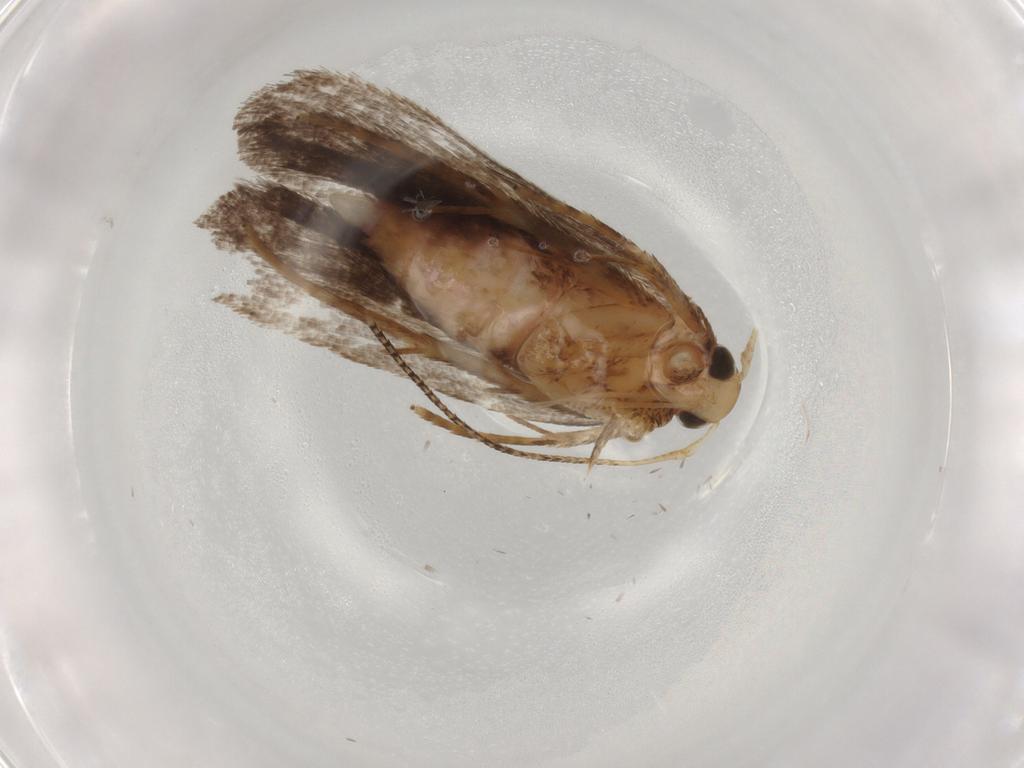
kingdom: Animalia
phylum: Arthropoda
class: Insecta
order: Lepidoptera
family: Autostichidae
